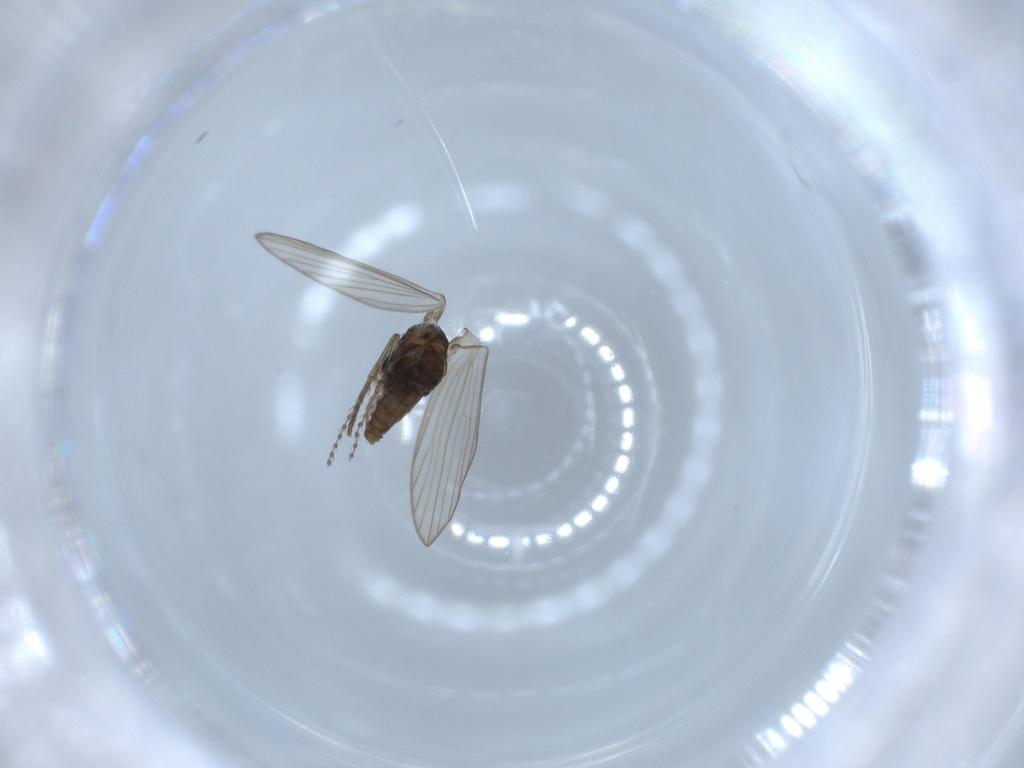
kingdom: Animalia
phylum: Arthropoda
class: Insecta
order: Diptera
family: Psychodidae
